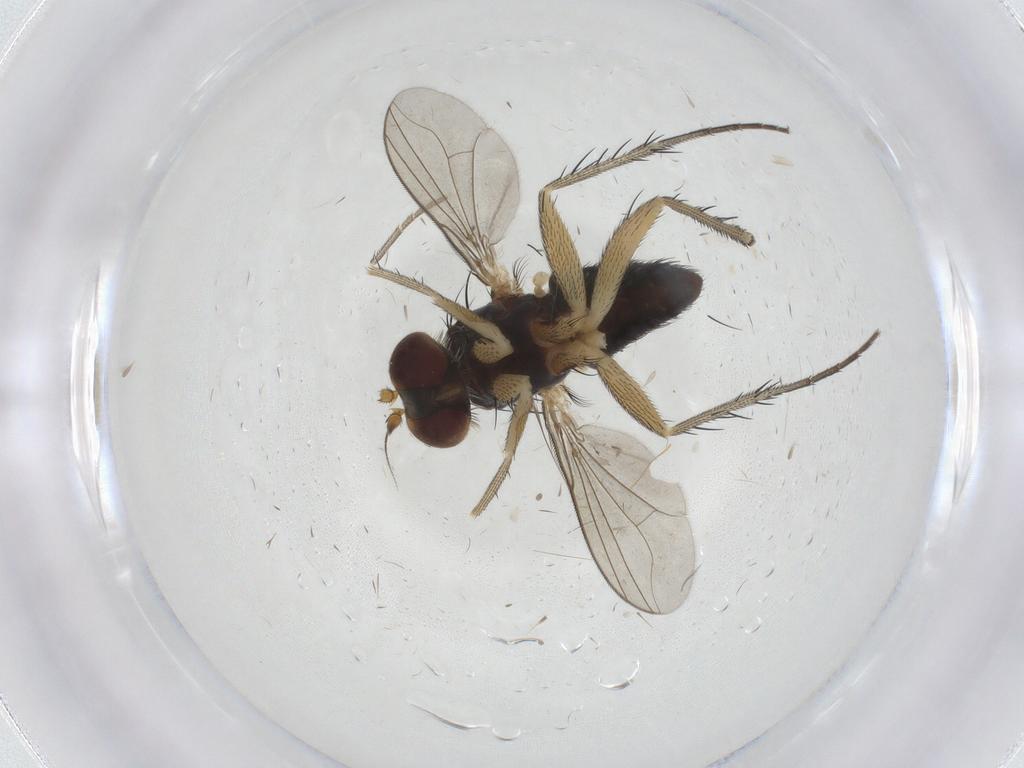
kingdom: Animalia
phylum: Arthropoda
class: Insecta
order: Diptera
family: Dolichopodidae
